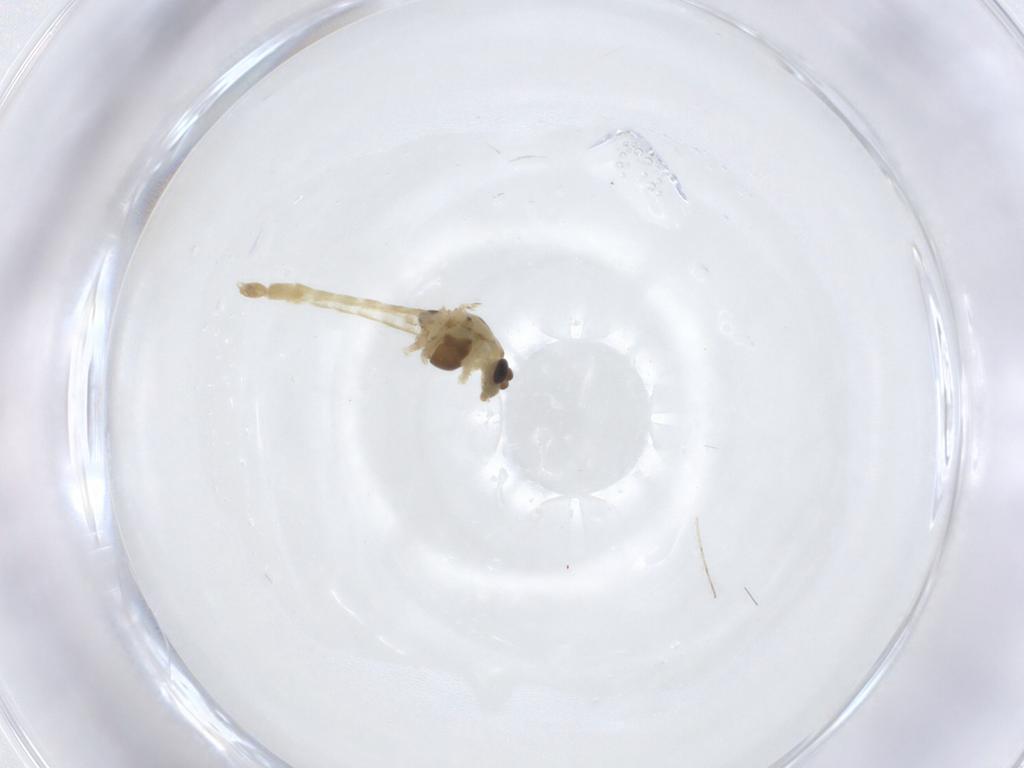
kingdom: Animalia
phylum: Arthropoda
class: Insecta
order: Diptera
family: Chironomidae
